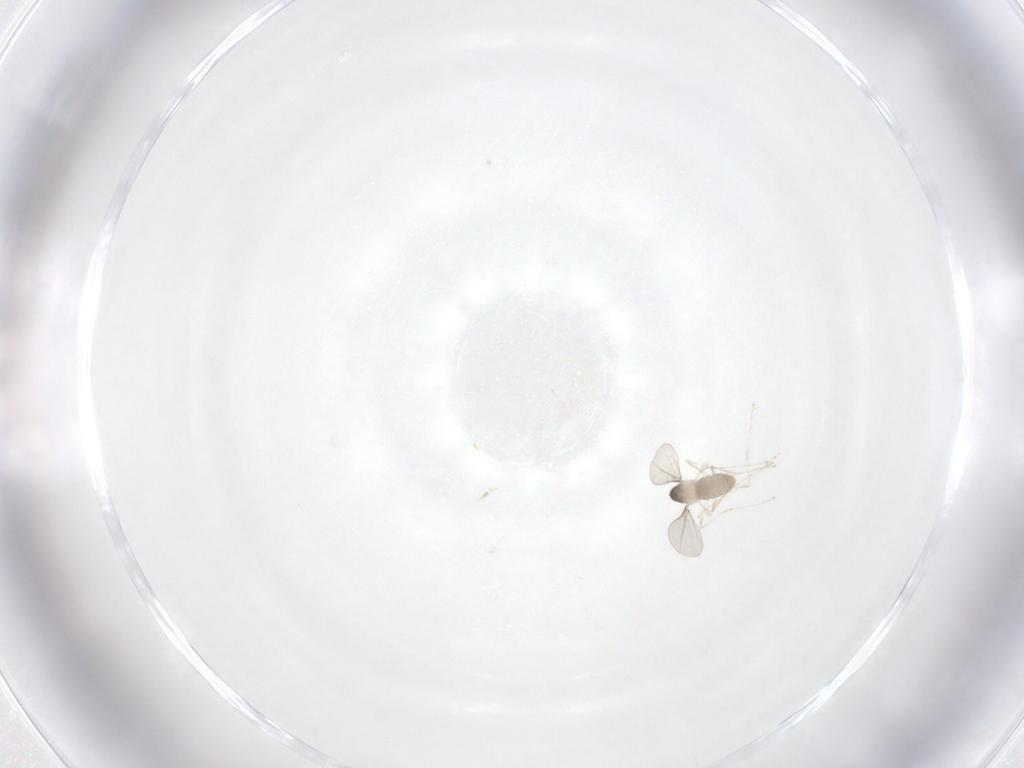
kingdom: Animalia
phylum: Arthropoda
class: Insecta
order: Diptera
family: Cecidomyiidae
